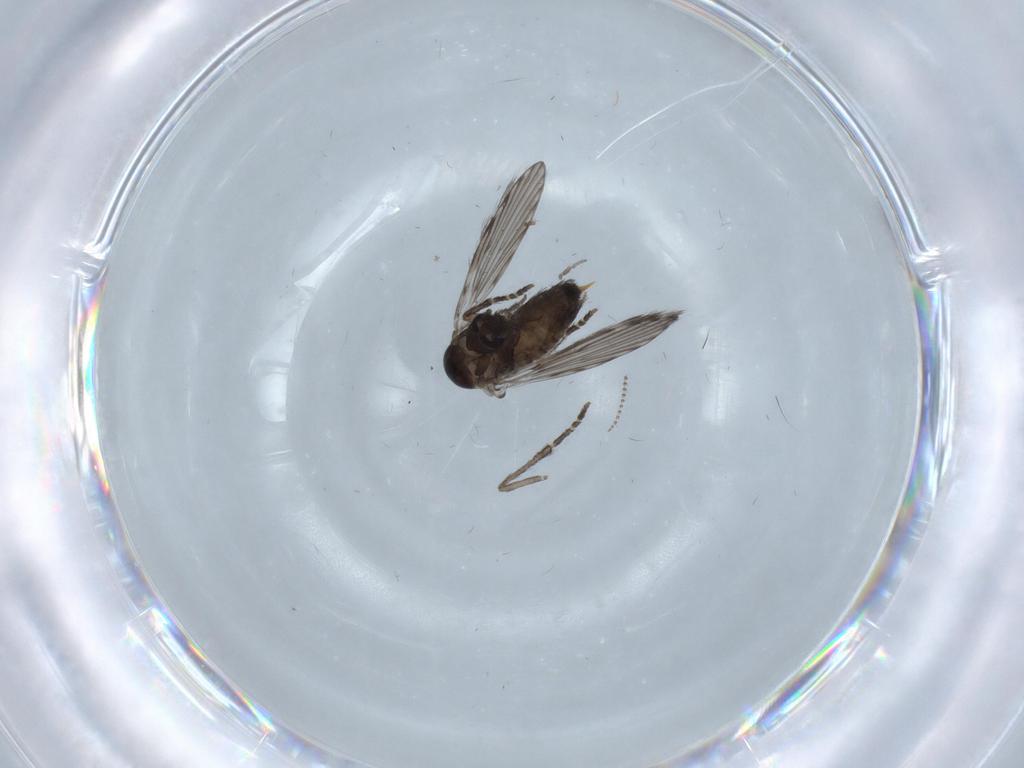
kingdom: Animalia
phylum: Arthropoda
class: Insecta
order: Diptera
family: Psychodidae
